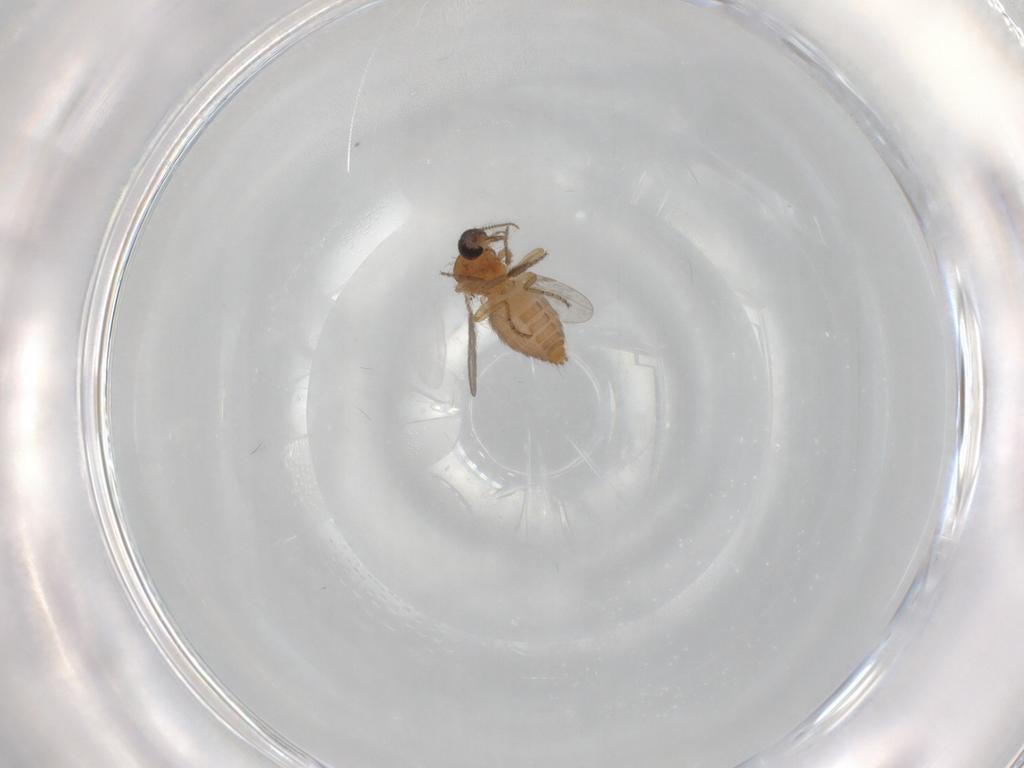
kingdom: Animalia
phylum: Arthropoda
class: Insecta
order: Diptera
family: Ceratopogonidae
